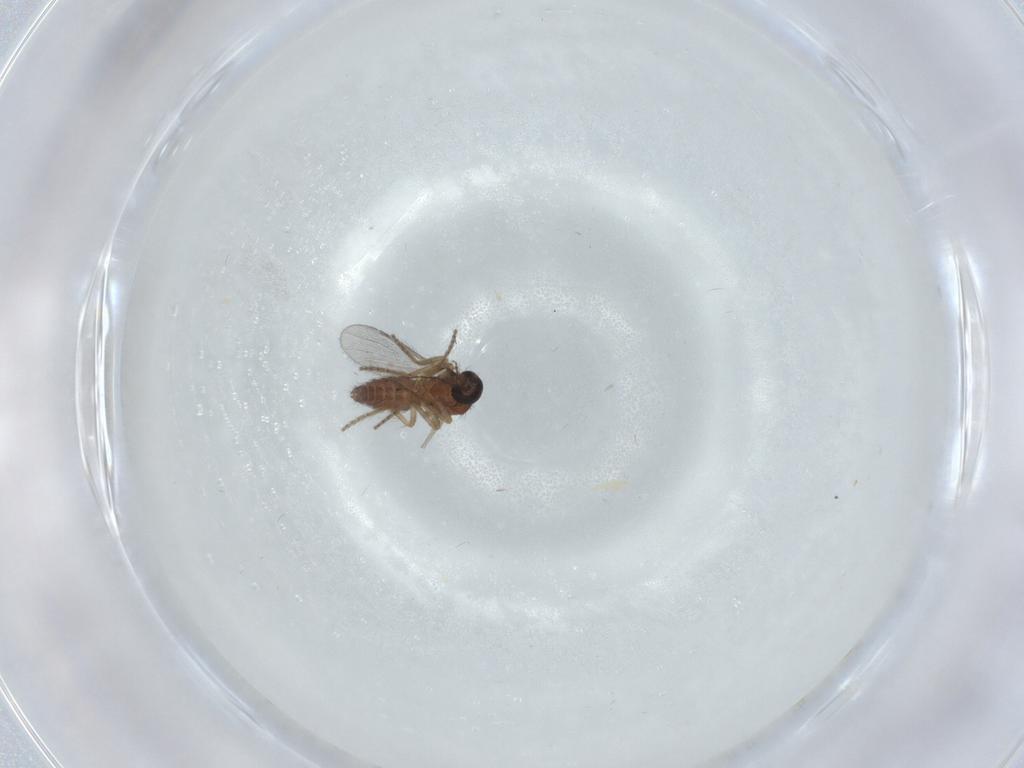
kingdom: Animalia
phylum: Arthropoda
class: Insecta
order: Diptera
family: Ceratopogonidae
